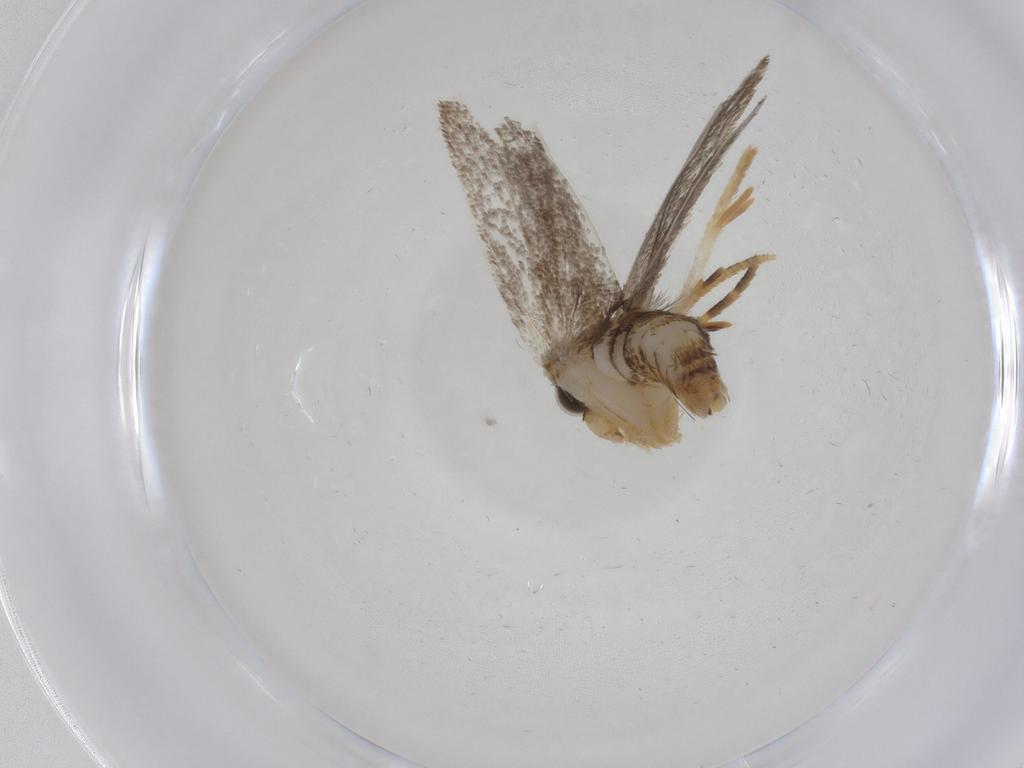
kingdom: Animalia
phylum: Arthropoda
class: Insecta
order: Lepidoptera
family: Oecophoridae
